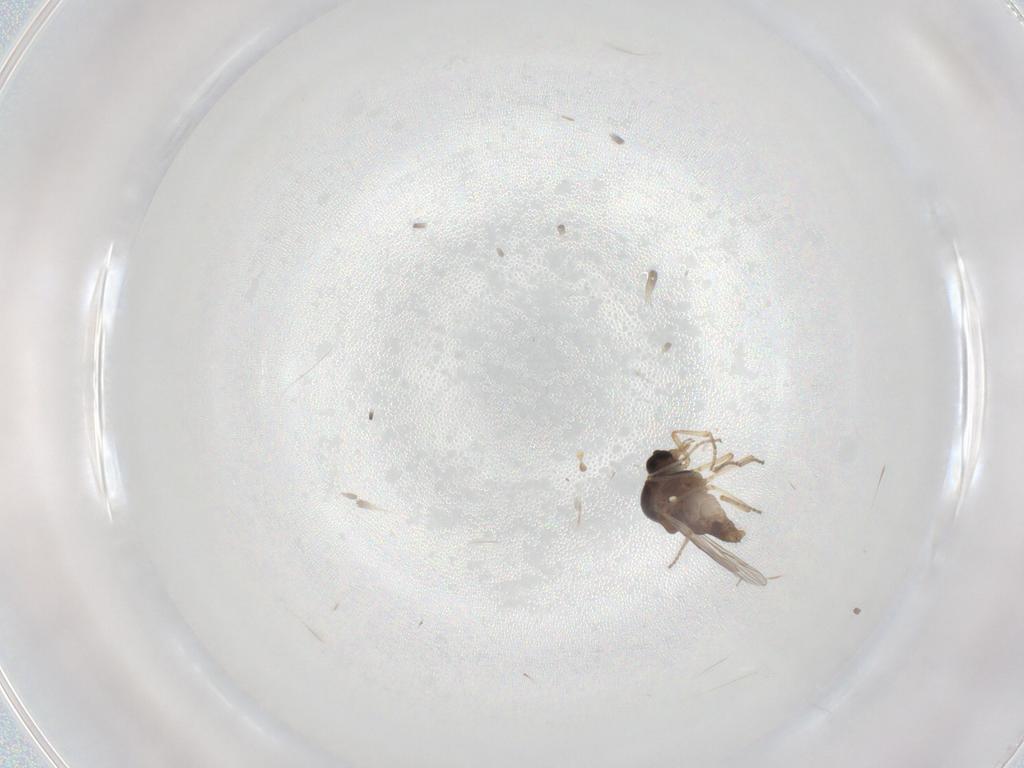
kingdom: Animalia
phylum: Arthropoda
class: Insecta
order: Diptera
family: Ceratopogonidae
